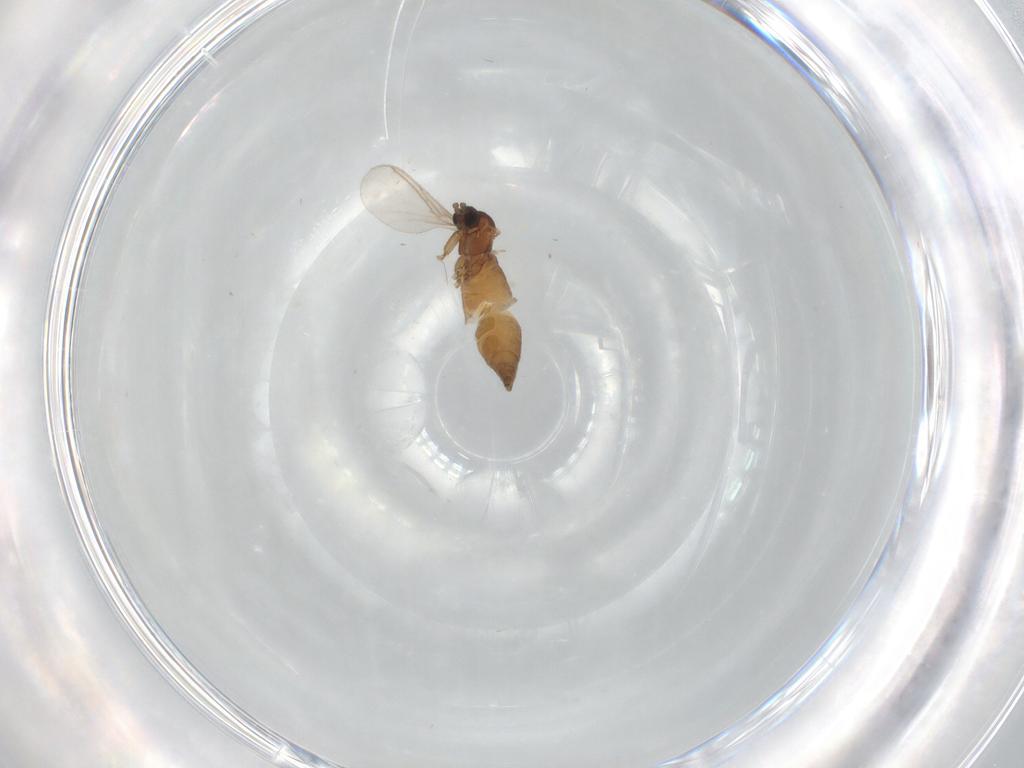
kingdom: Animalia
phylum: Arthropoda
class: Insecta
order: Diptera
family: Sciaridae
